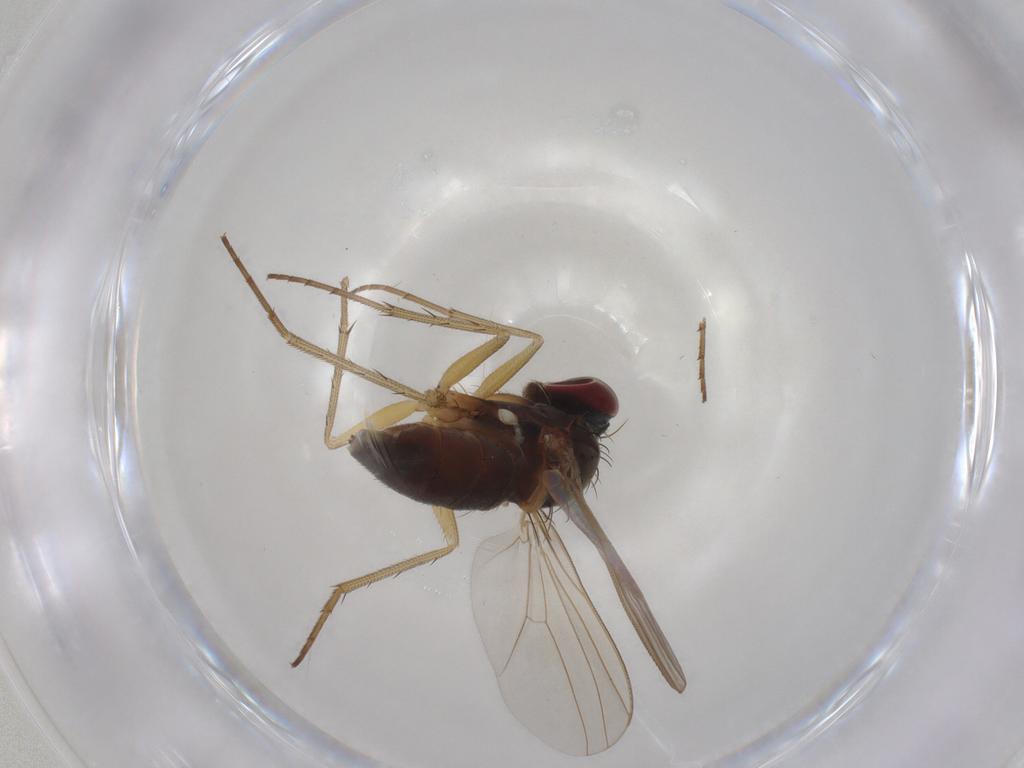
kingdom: Animalia
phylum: Arthropoda
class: Insecta
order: Diptera
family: Dolichopodidae
